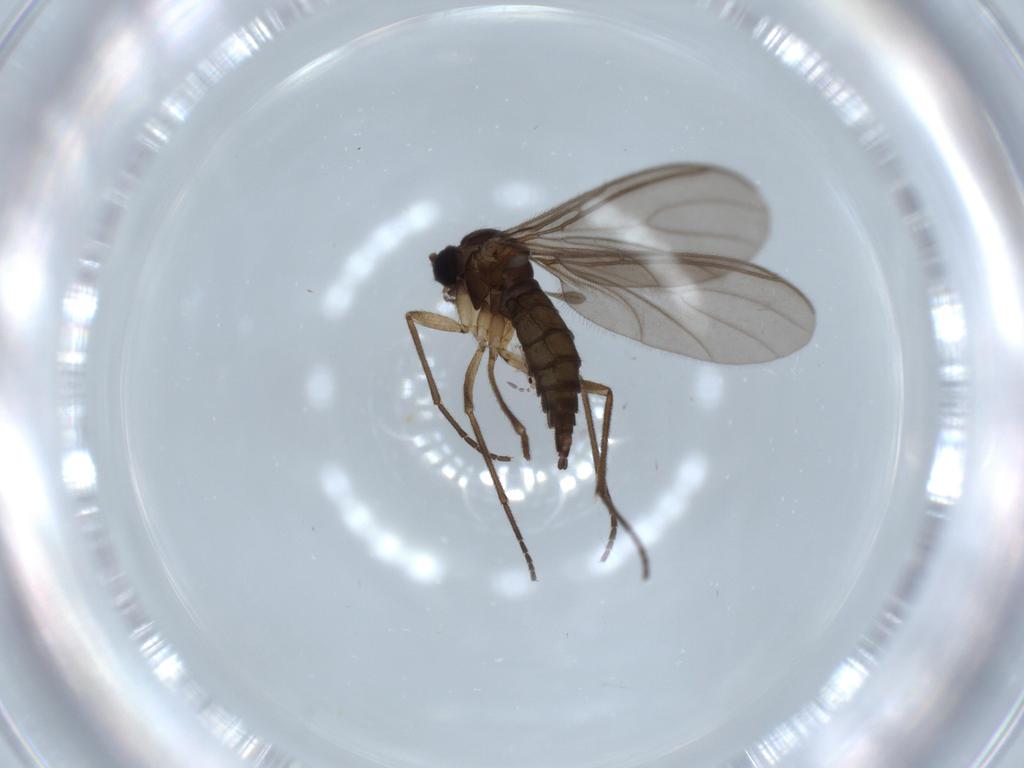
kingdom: Animalia
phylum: Arthropoda
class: Insecta
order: Diptera
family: Sciaridae
